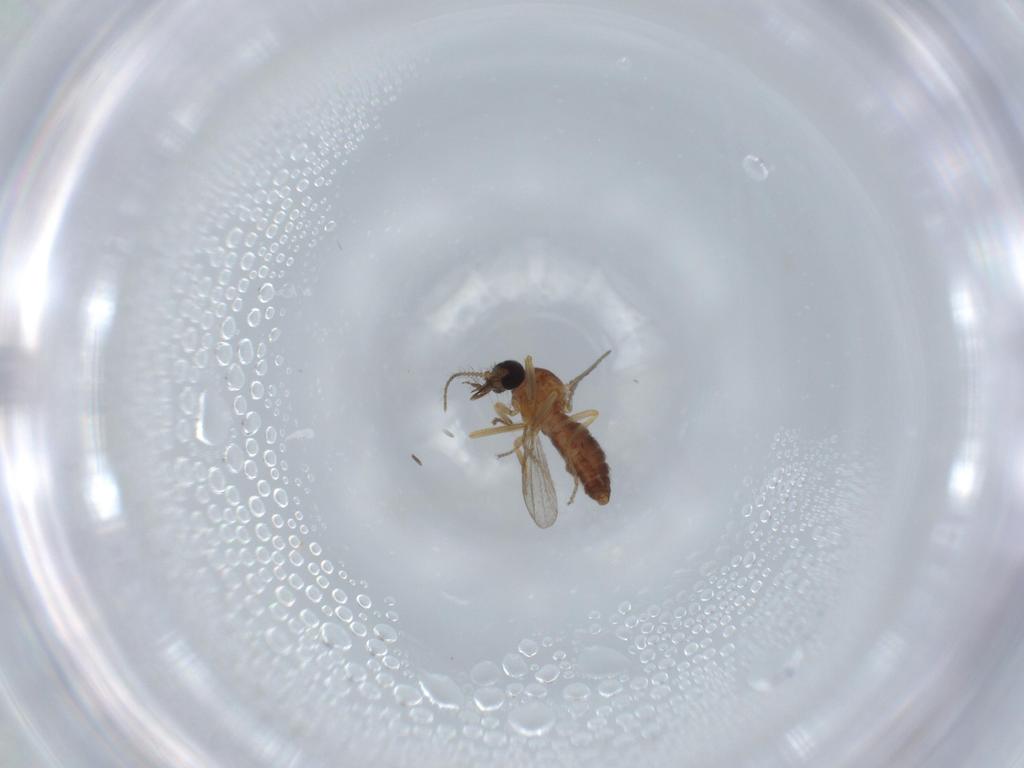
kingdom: Animalia
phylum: Arthropoda
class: Insecta
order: Diptera
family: Ceratopogonidae
